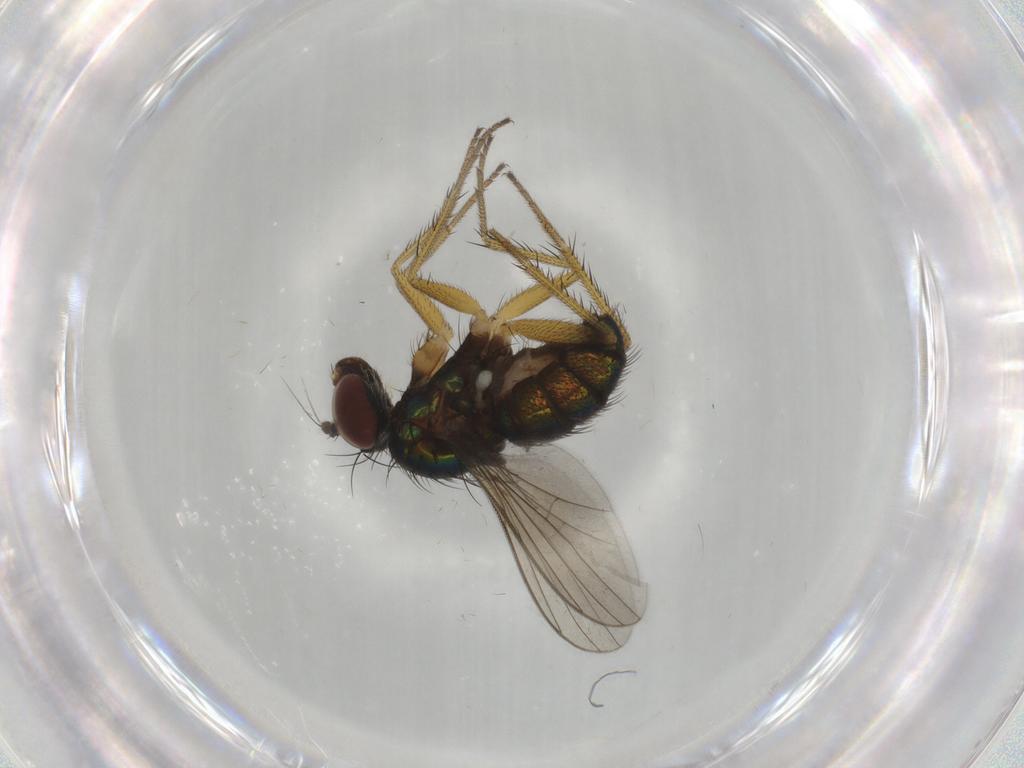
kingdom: Animalia
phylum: Arthropoda
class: Insecta
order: Diptera
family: Dolichopodidae
